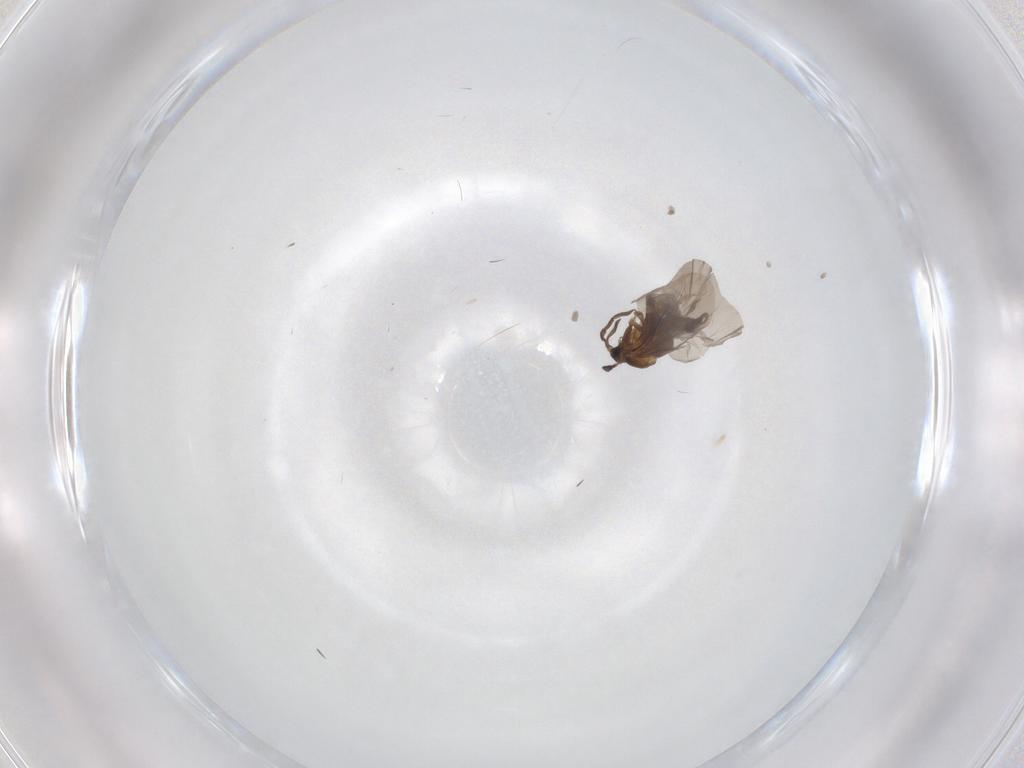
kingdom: Animalia
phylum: Arthropoda
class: Insecta
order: Strepsiptera
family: Myrmecolacidae
